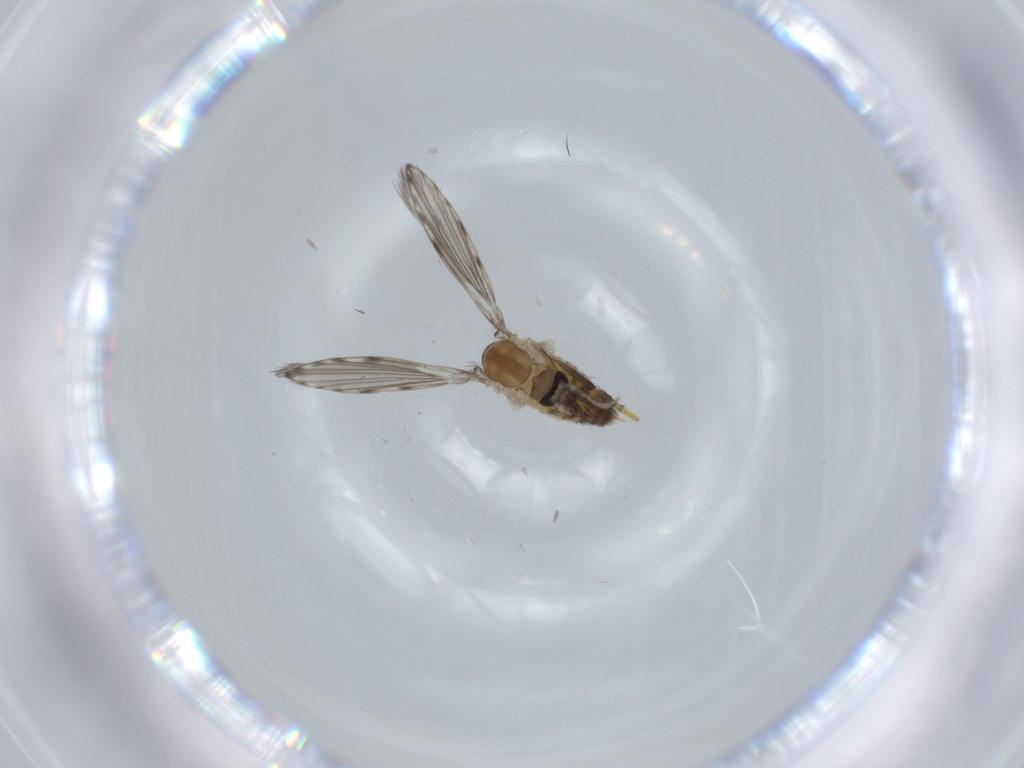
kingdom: Animalia
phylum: Arthropoda
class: Insecta
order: Diptera
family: Psychodidae
